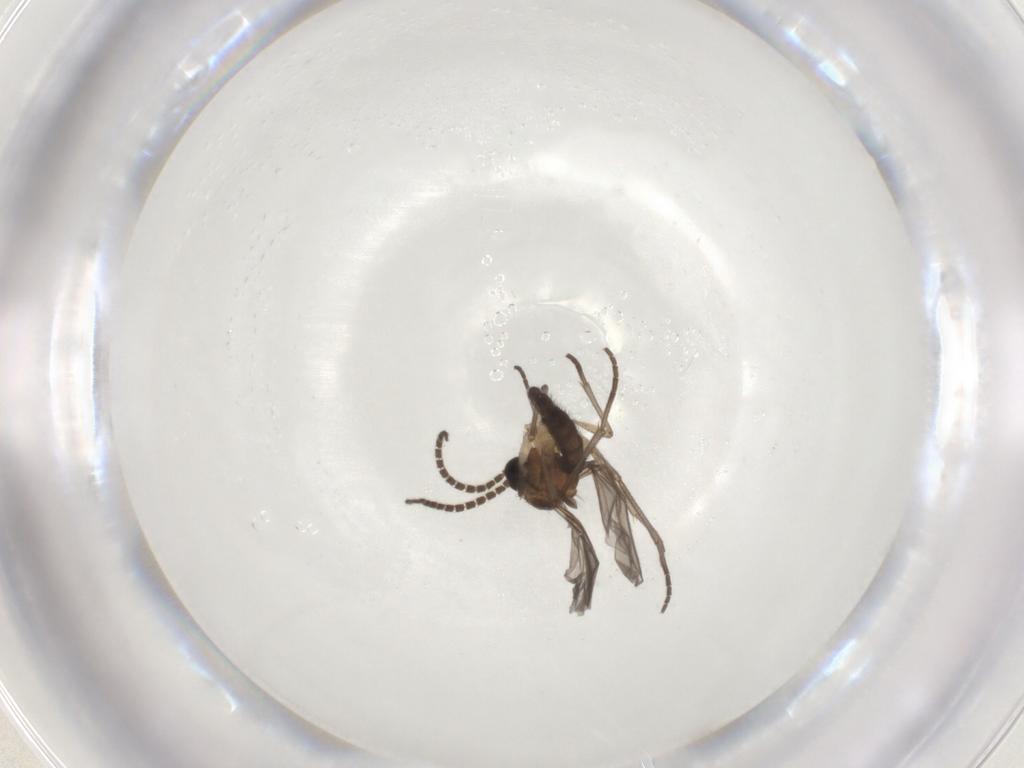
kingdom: Animalia
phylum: Arthropoda
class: Insecta
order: Diptera
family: Sciaridae
